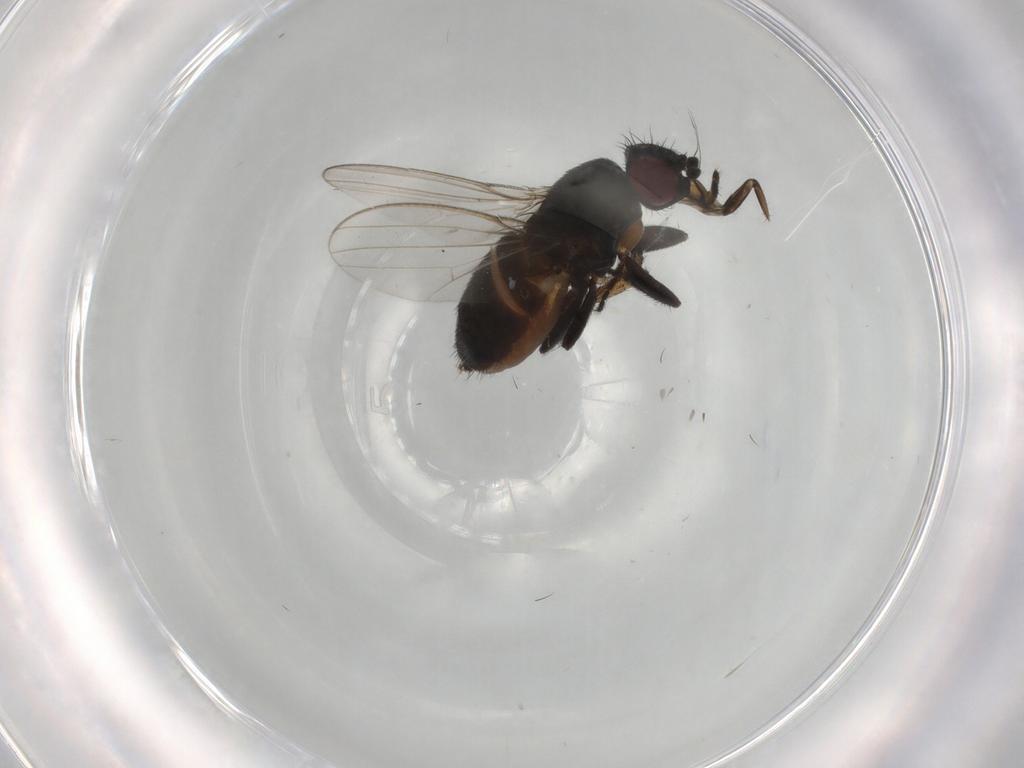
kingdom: Animalia
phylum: Arthropoda
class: Insecta
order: Diptera
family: Milichiidae
